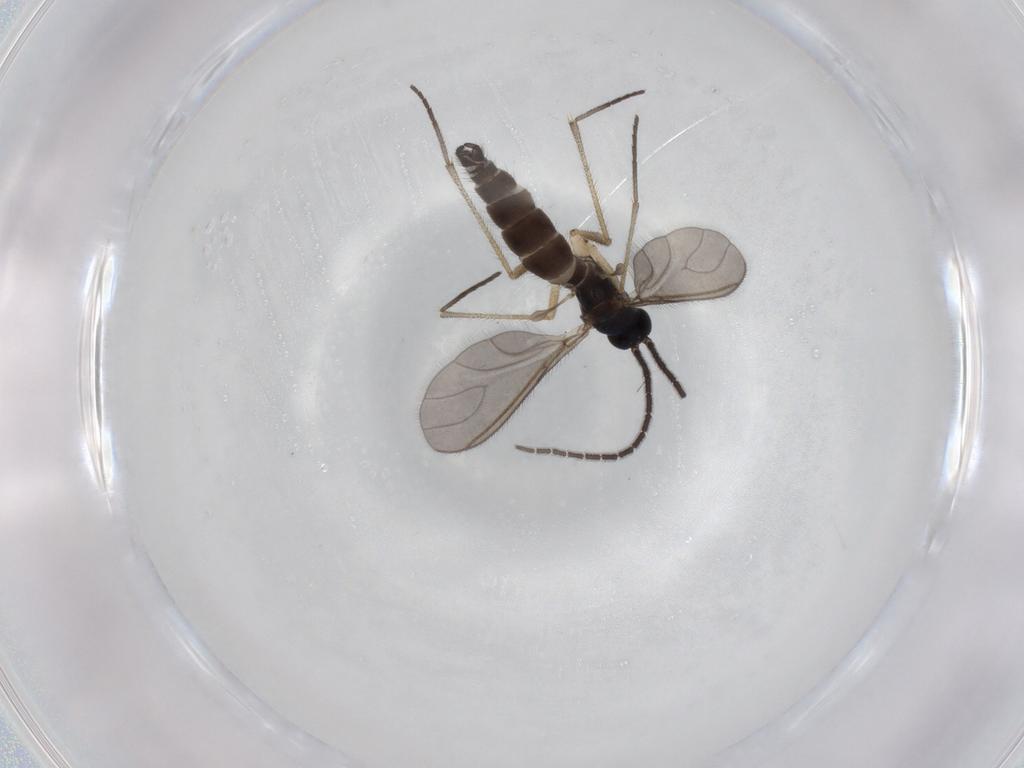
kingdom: Animalia
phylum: Arthropoda
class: Insecta
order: Diptera
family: Sciaridae
